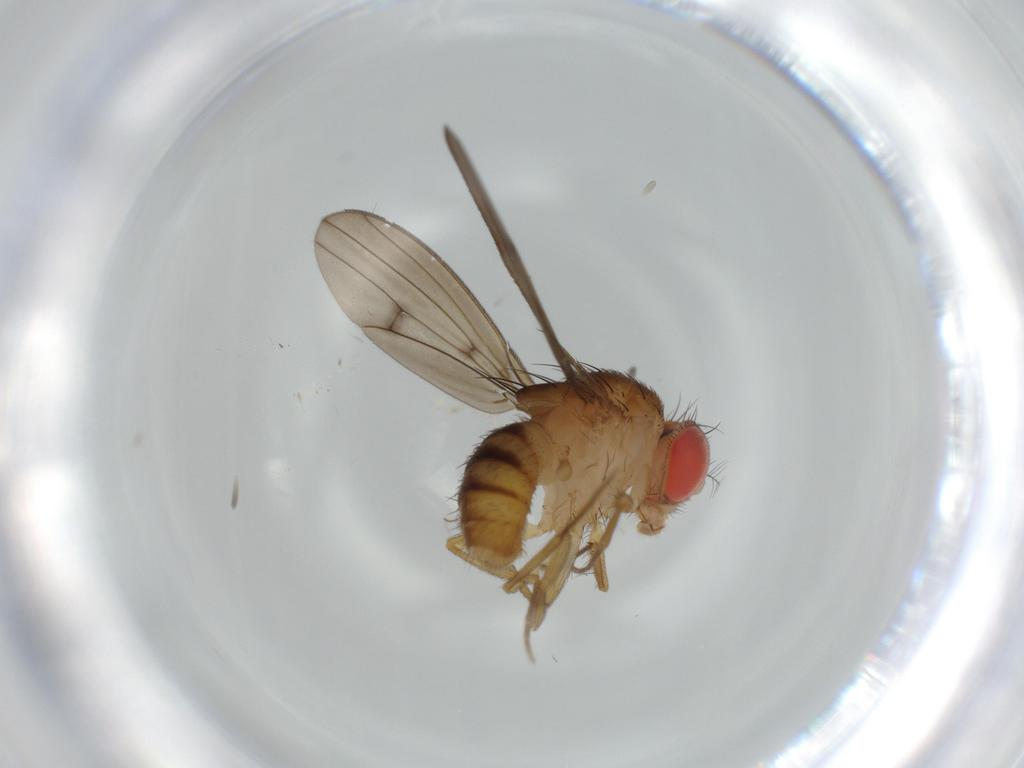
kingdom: Animalia
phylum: Arthropoda
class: Insecta
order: Diptera
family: Drosophilidae
